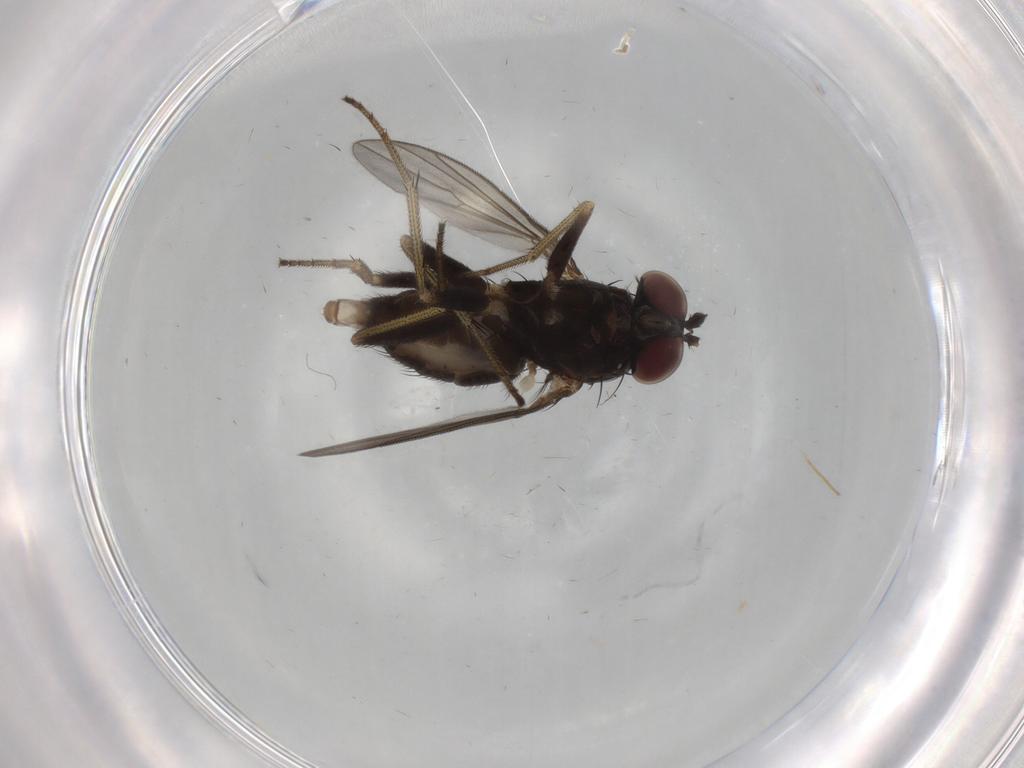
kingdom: Animalia
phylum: Arthropoda
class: Insecta
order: Diptera
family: Dolichopodidae
